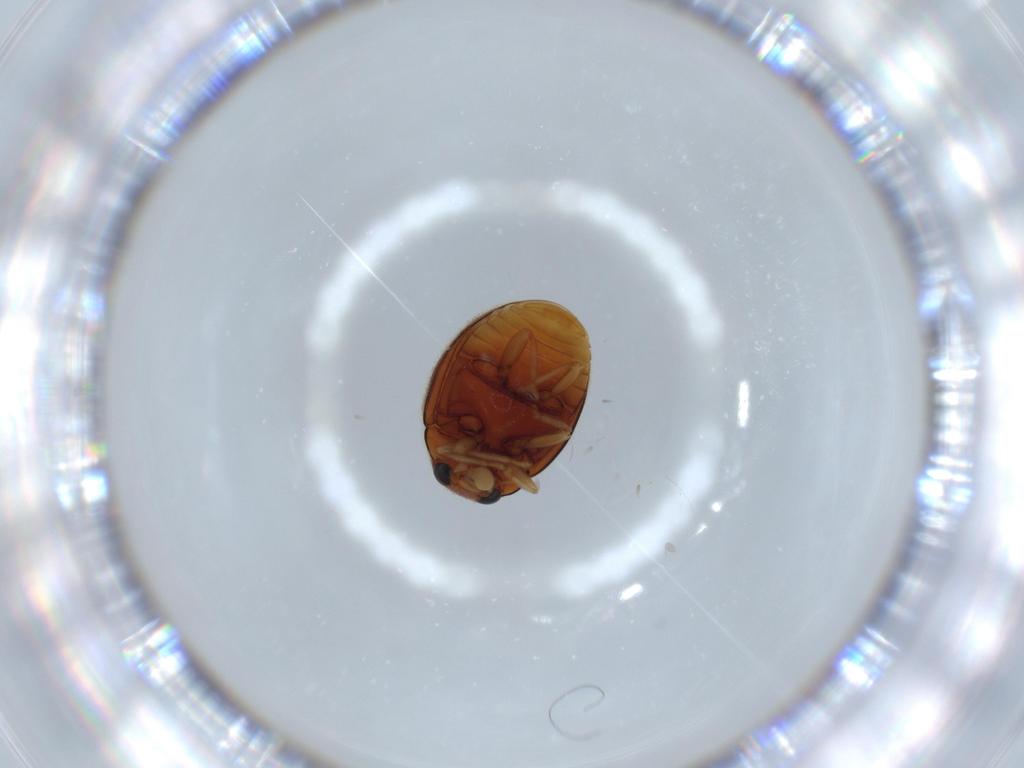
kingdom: Animalia
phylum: Arthropoda
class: Insecta
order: Coleoptera
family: Coccinellidae
